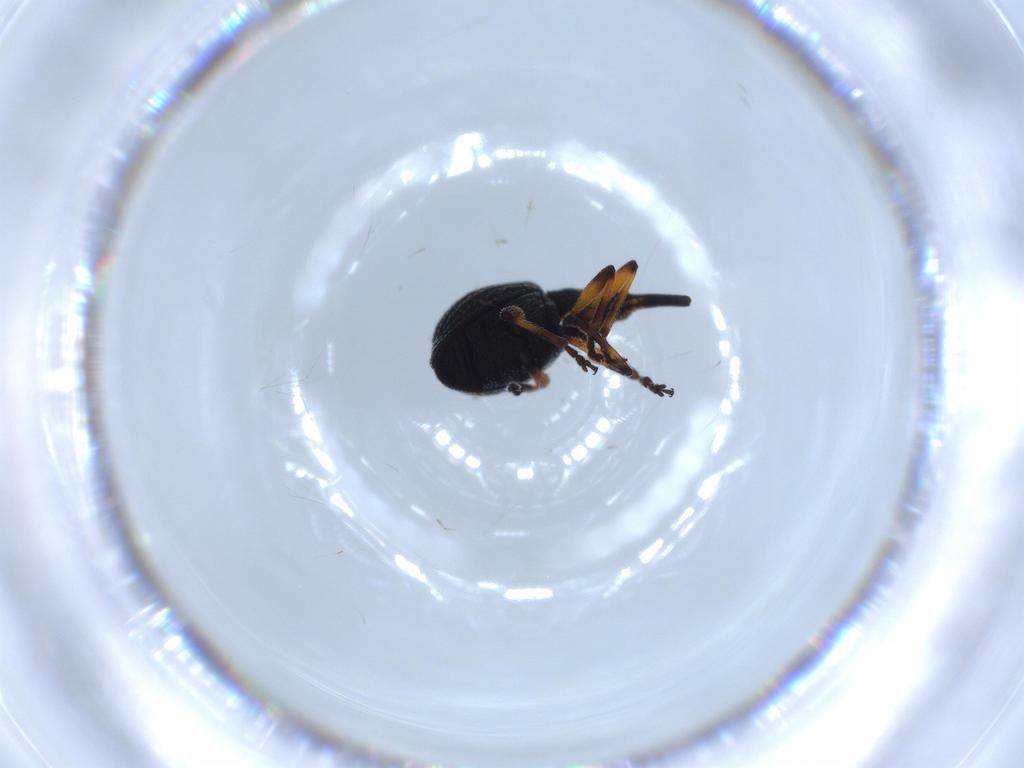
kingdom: Animalia
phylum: Arthropoda
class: Insecta
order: Coleoptera
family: Brentidae
